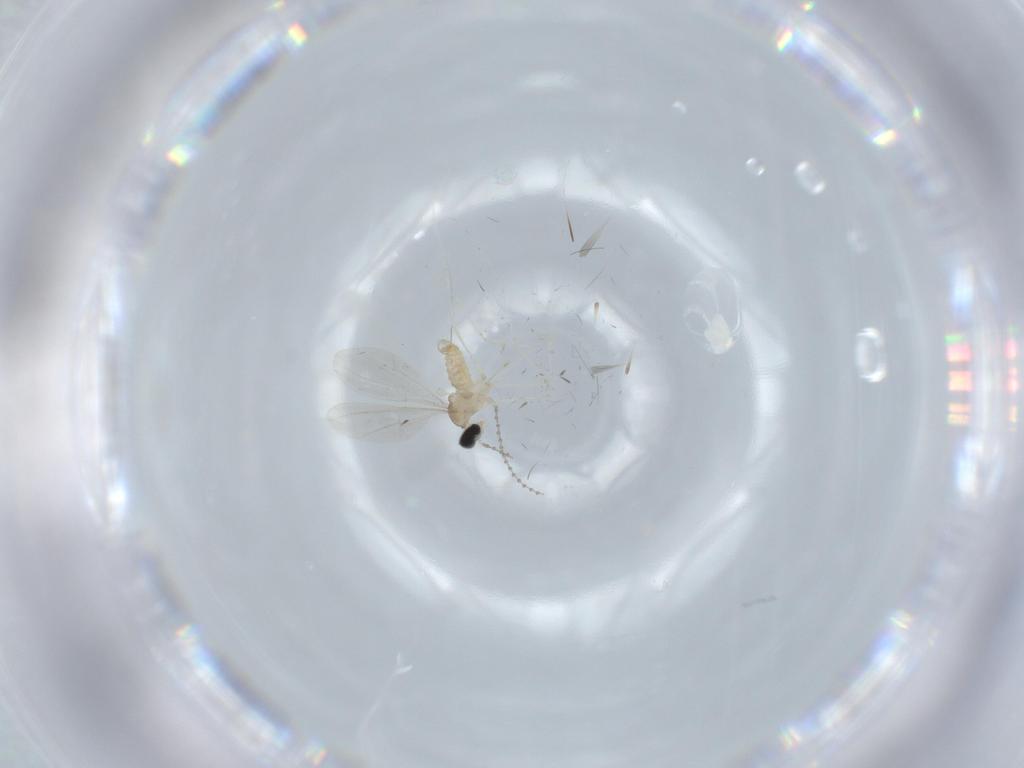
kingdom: Animalia
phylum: Arthropoda
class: Insecta
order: Diptera
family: Cecidomyiidae
